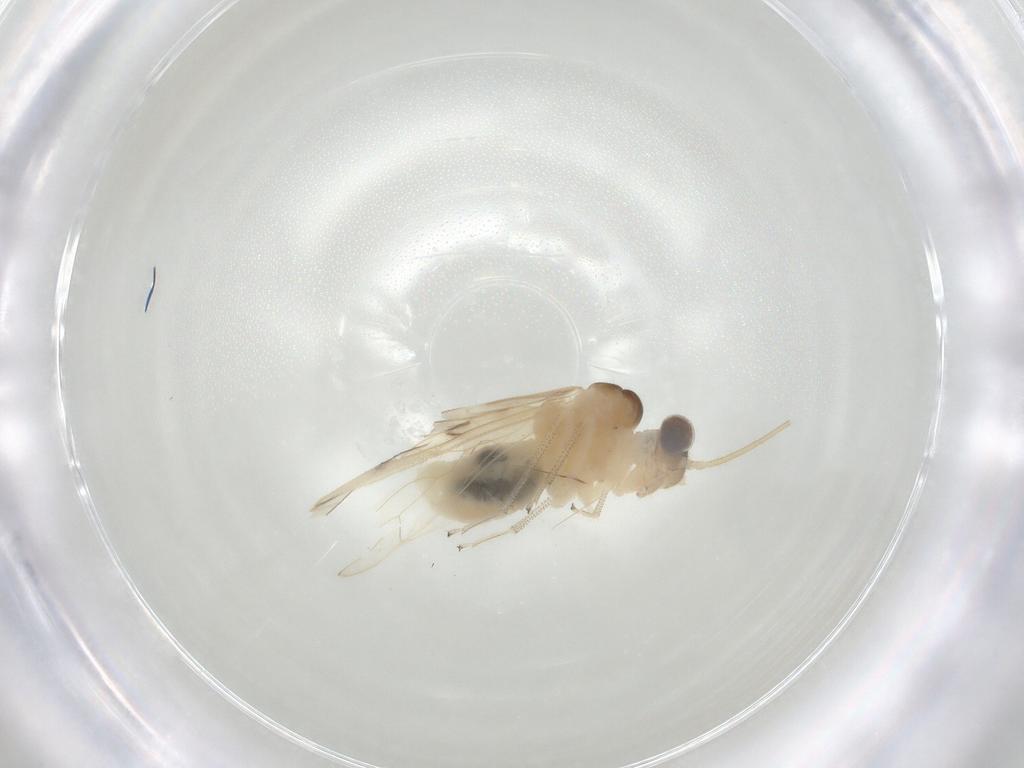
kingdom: Animalia
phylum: Arthropoda
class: Insecta
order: Psocodea
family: Caeciliusidae
